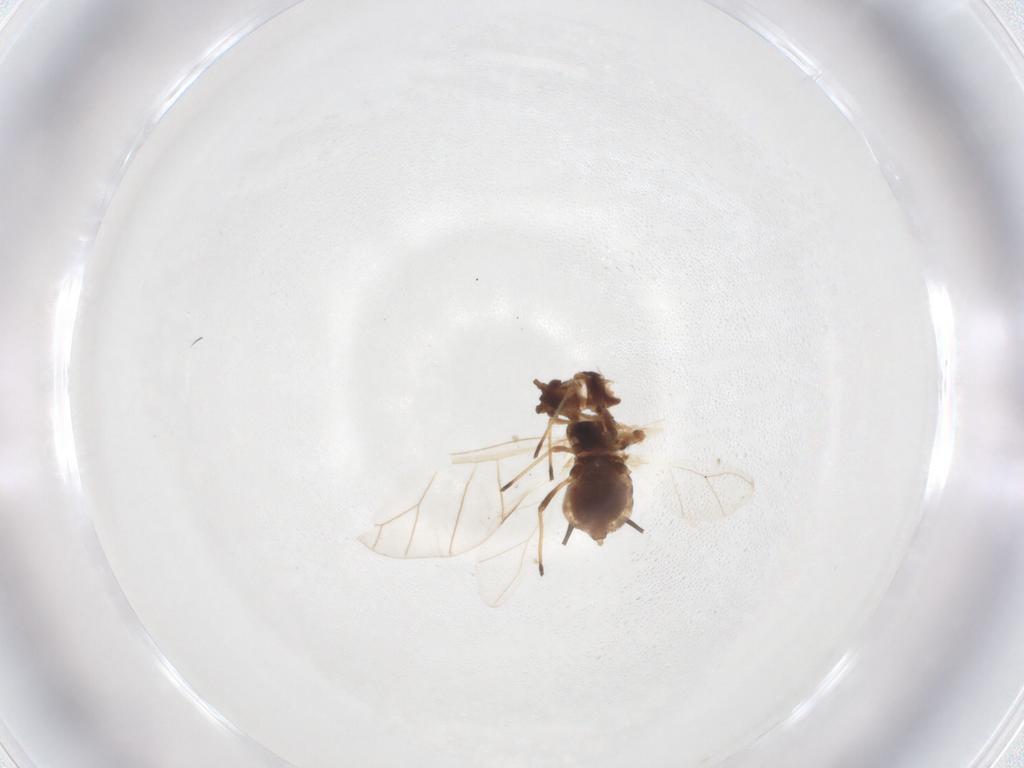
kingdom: Animalia
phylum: Arthropoda
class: Insecta
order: Hemiptera
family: Aphididae
